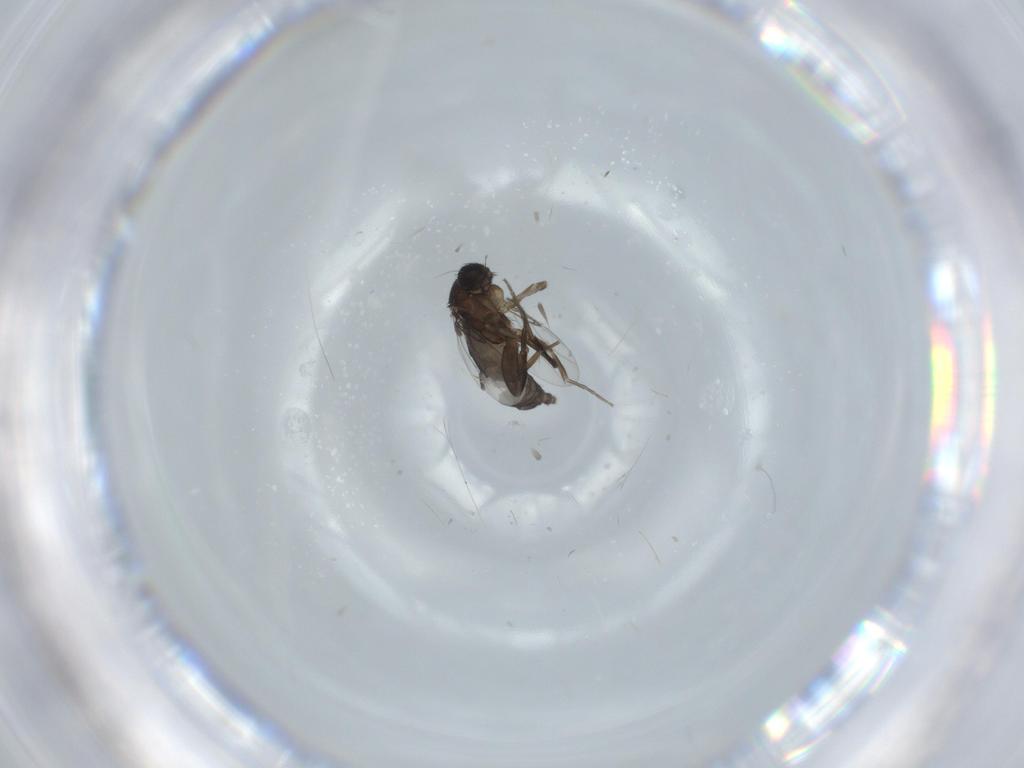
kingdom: Animalia
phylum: Arthropoda
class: Insecta
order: Diptera
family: Phoridae
